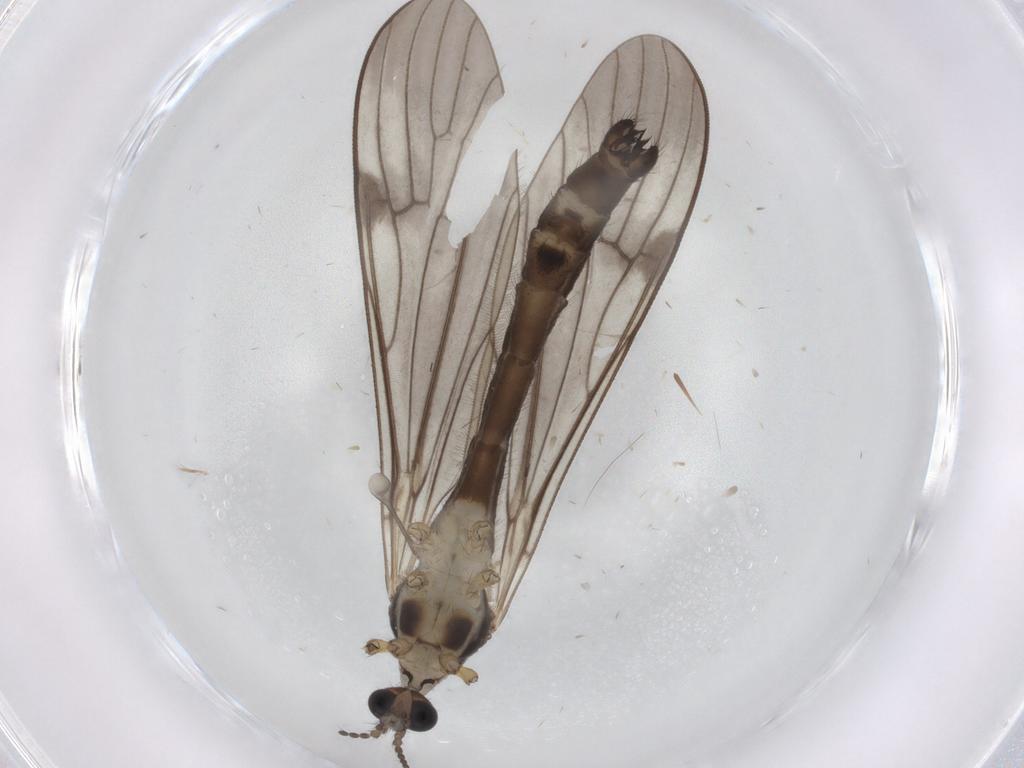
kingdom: Animalia
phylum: Arthropoda
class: Insecta
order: Diptera
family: Limoniidae
